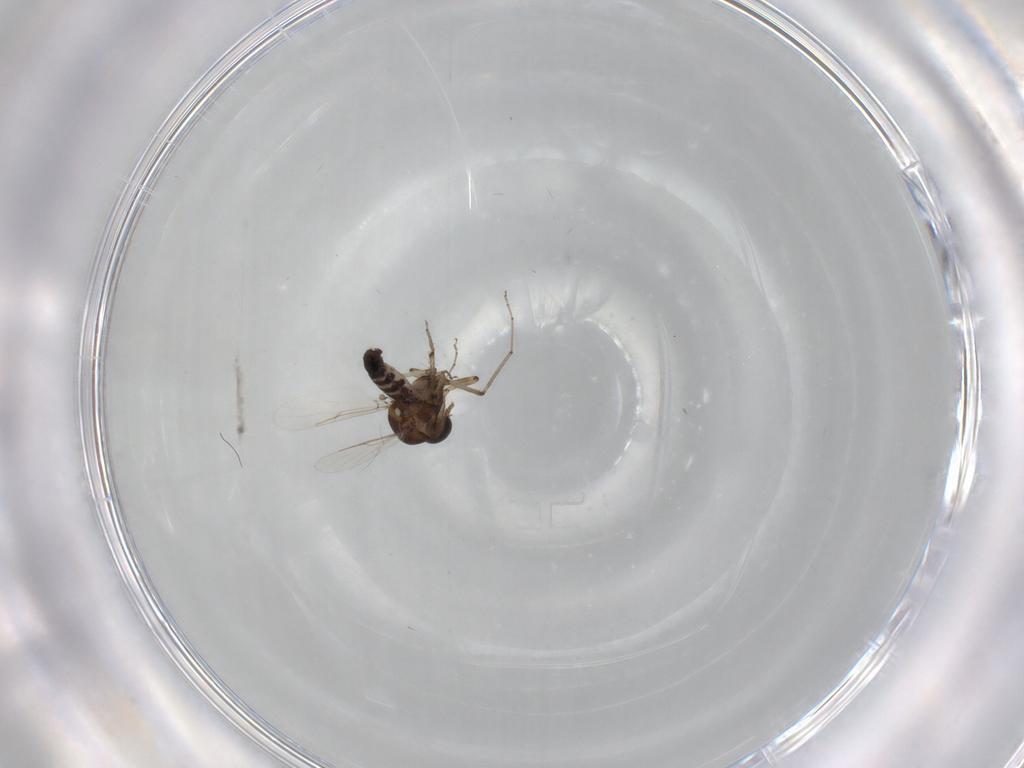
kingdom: Animalia
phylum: Arthropoda
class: Insecta
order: Diptera
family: Ceratopogonidae
